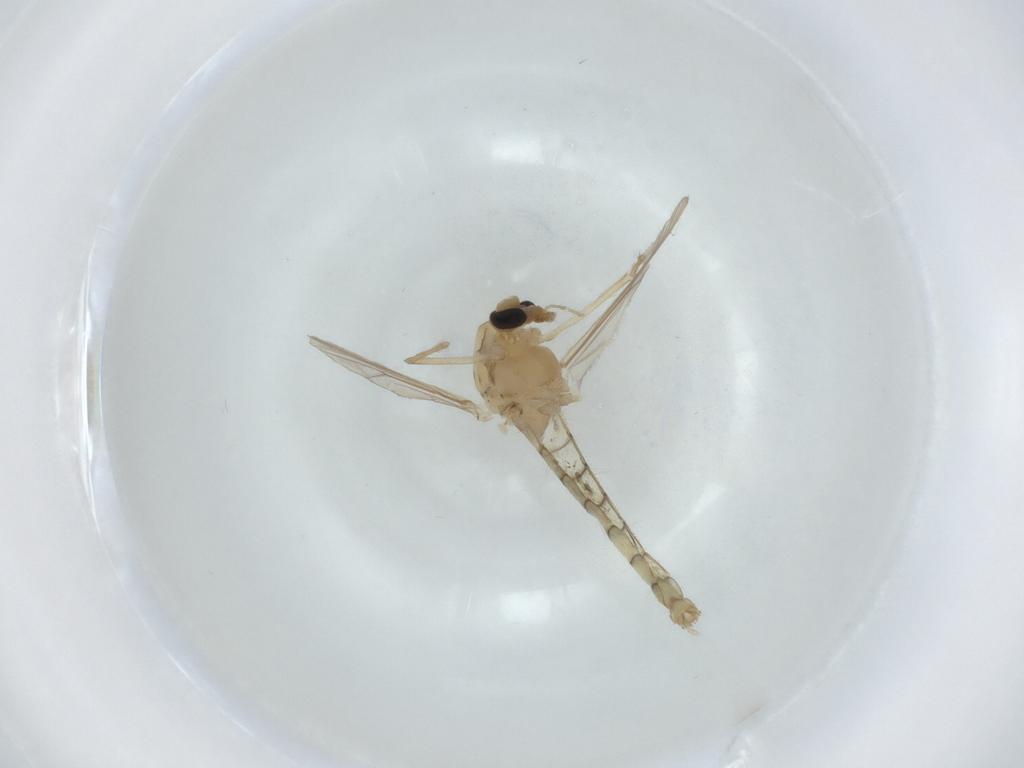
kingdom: Animalia
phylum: Arthropoda
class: Insecta
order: Diptera
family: Chironomidae
